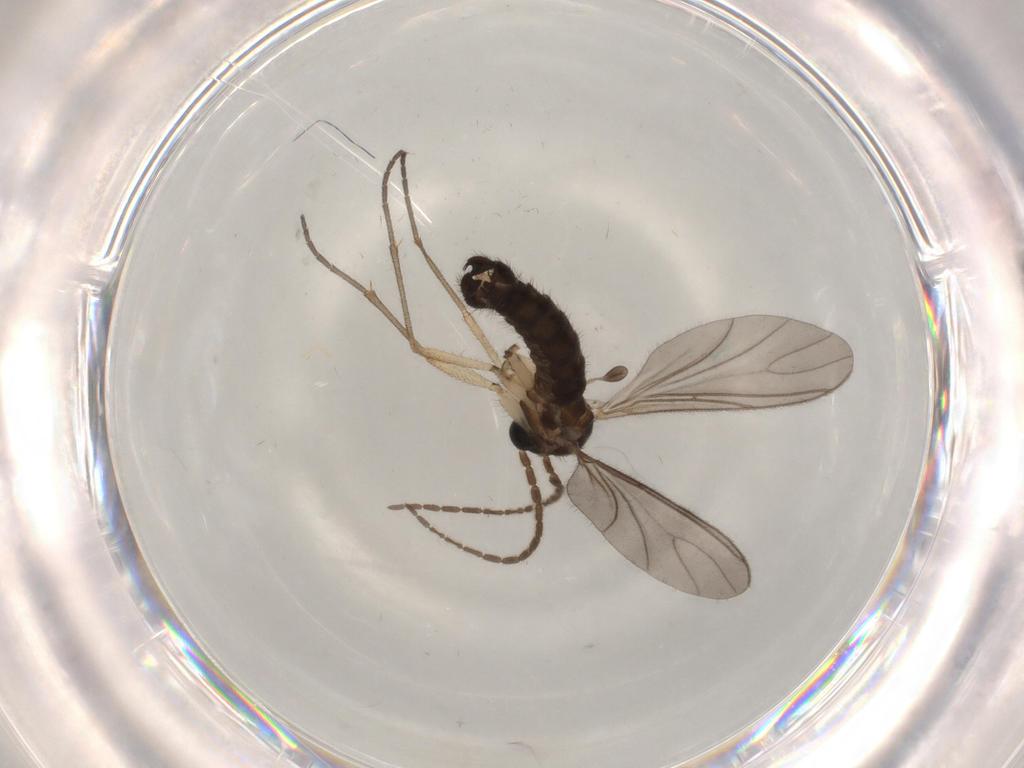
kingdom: Animalia
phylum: Arthropoda
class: Insecta
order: Diptera
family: Sciaridae
